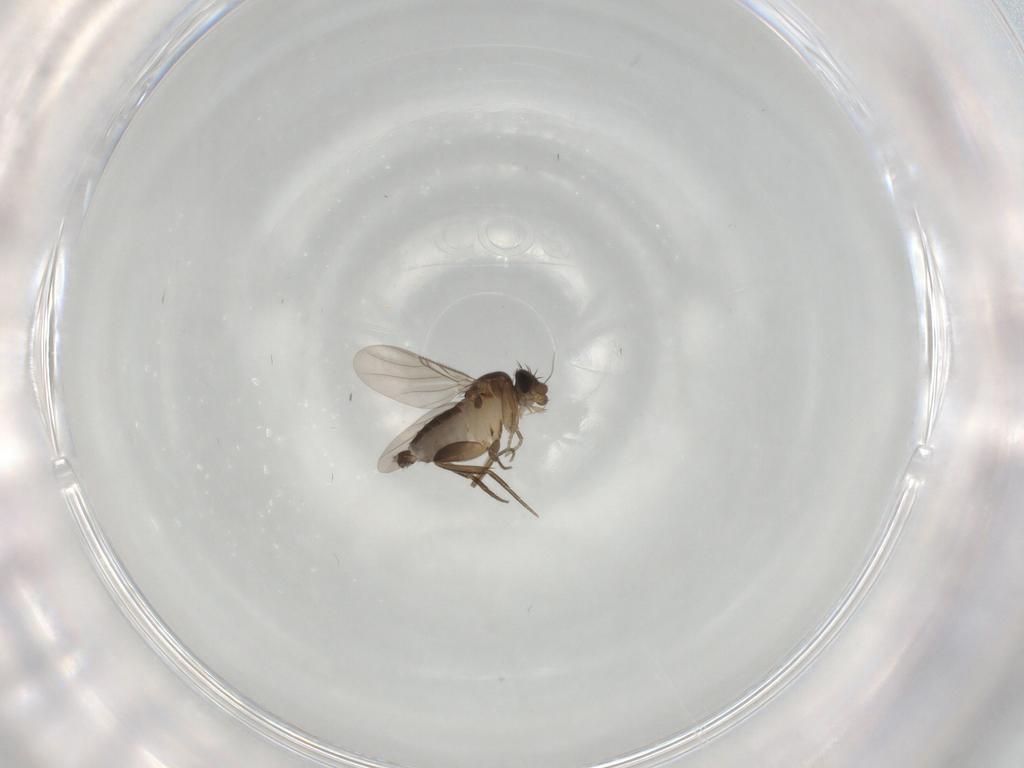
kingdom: Animalia
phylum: Arthropoda
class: Insecta
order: Diptera
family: Phoridae
